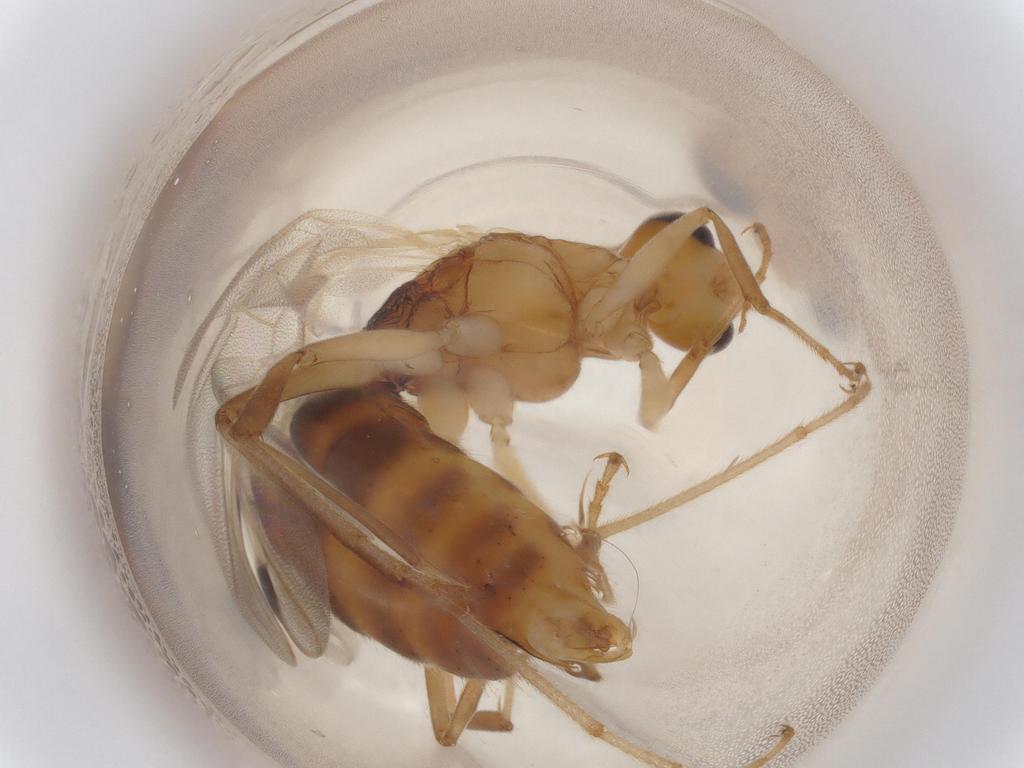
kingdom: Animalia
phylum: Arthropoda
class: Insecta
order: Hymenoptera
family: Formicidae
